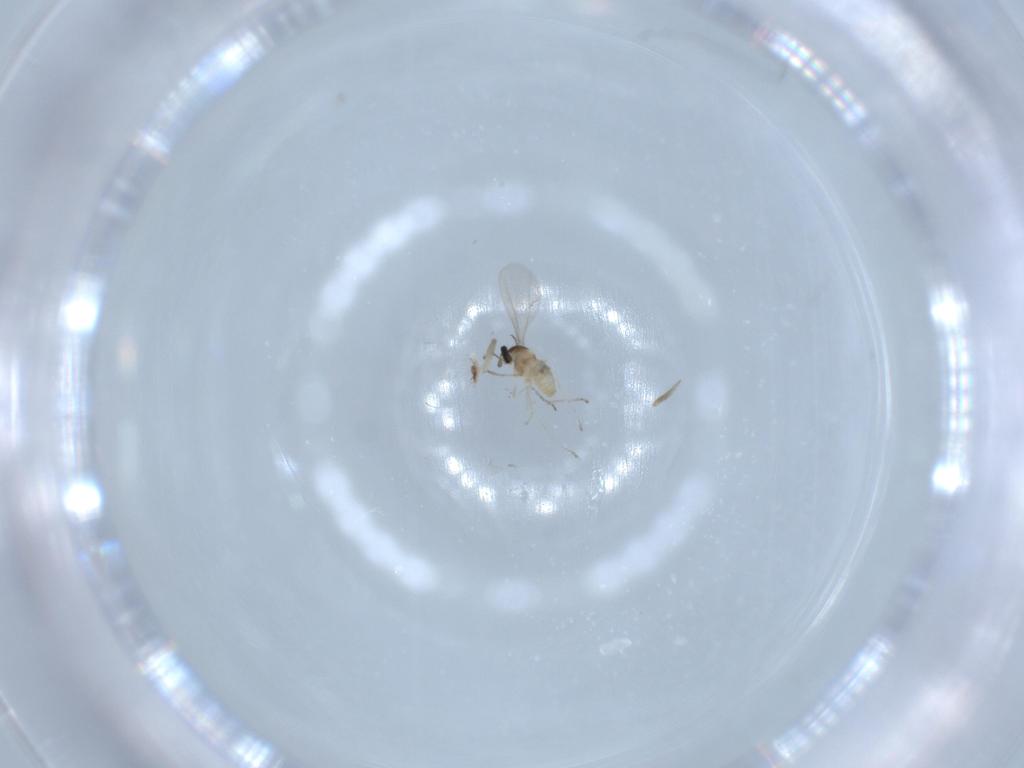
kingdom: Animalia
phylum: Arthropoda
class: Insecta
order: Diptera
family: Cecidomyiidae
